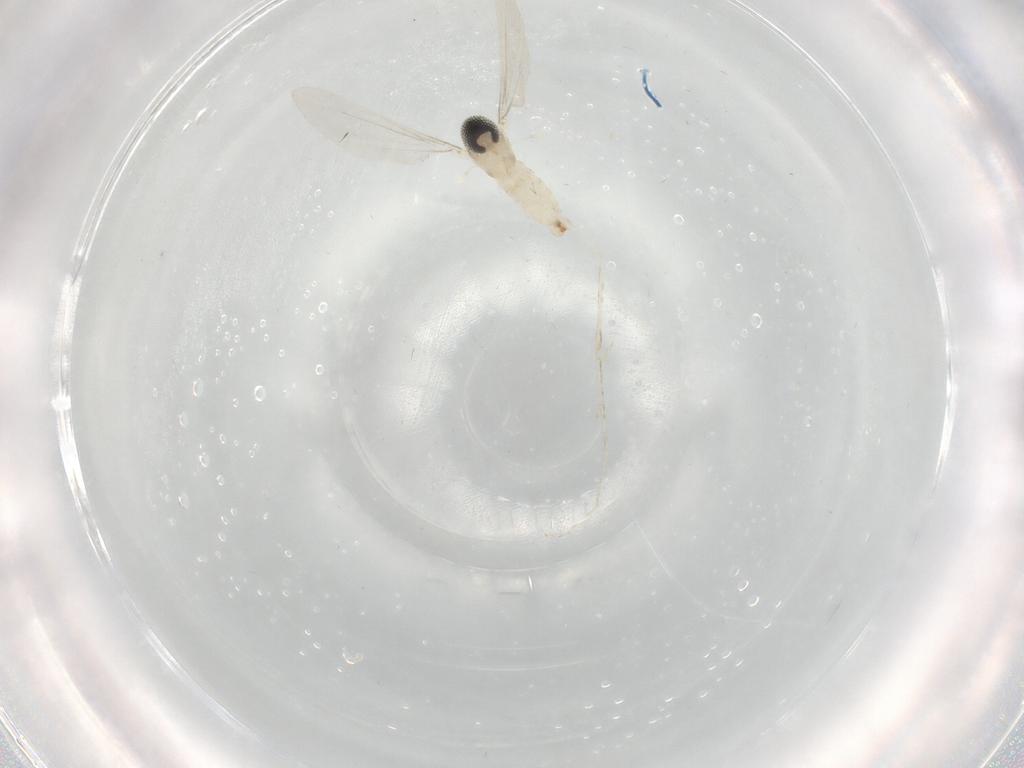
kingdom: Animalia
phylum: Arthropoda
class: Insecta
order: Diptera
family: Cecidomyiidae
